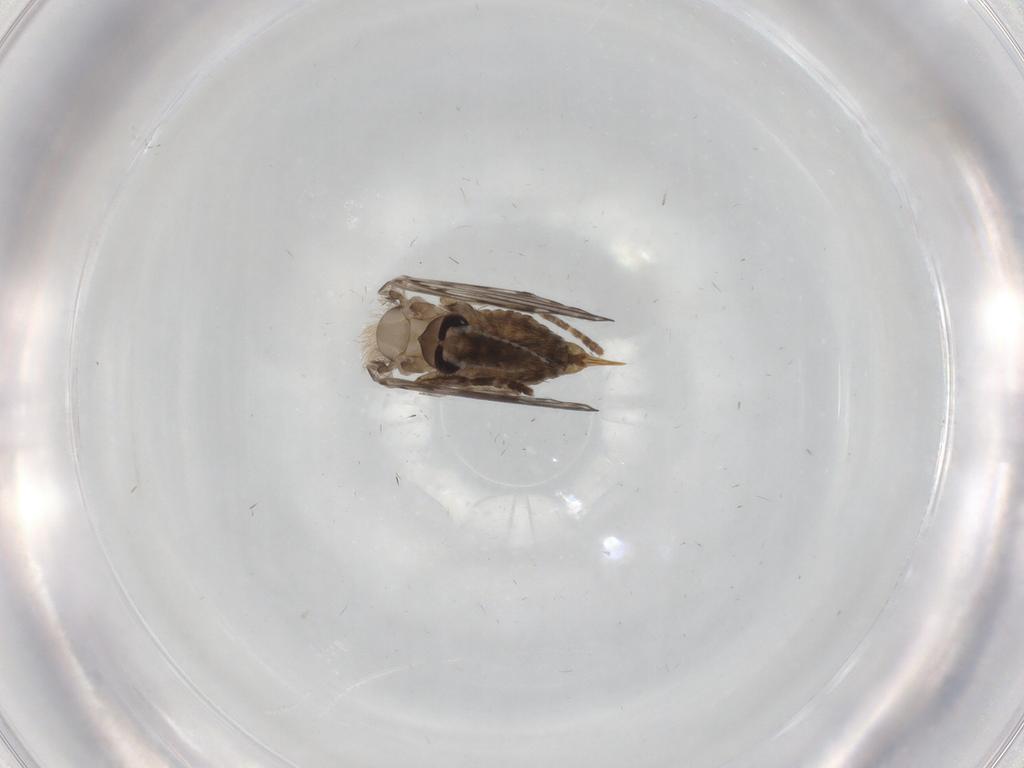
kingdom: Animalia
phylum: Arthropoda
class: Insecta
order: Diptera
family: Psychodidae
